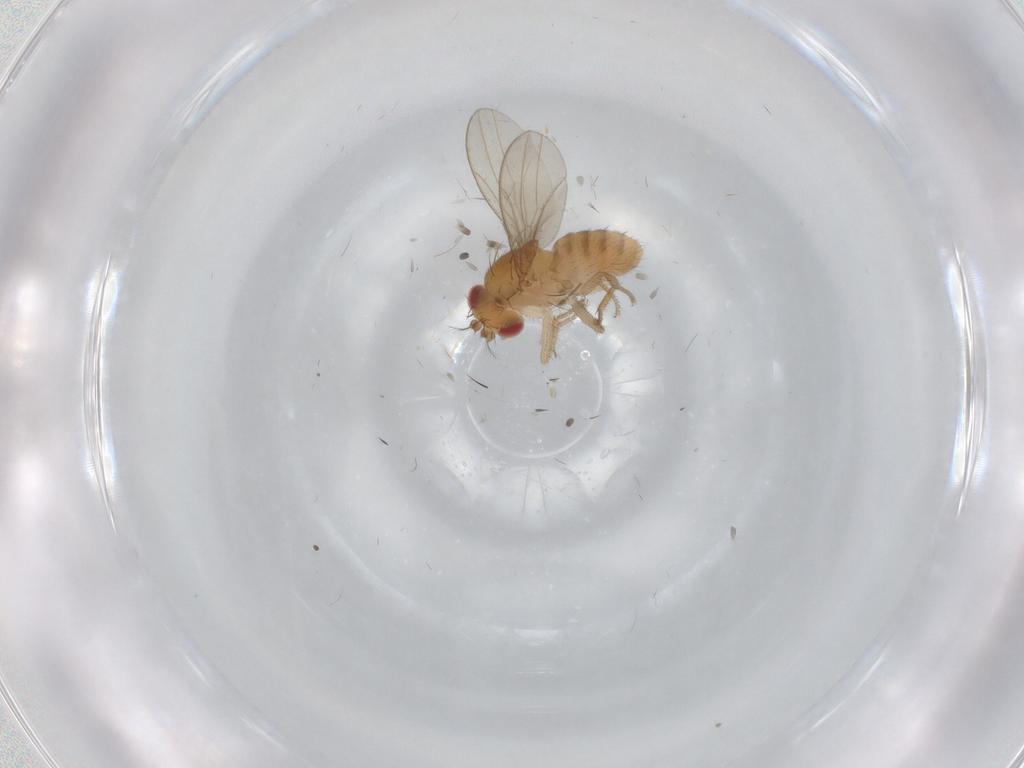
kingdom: Animalia
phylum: Arthropoda
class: Insecta
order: Diptera
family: Drosophilidae
